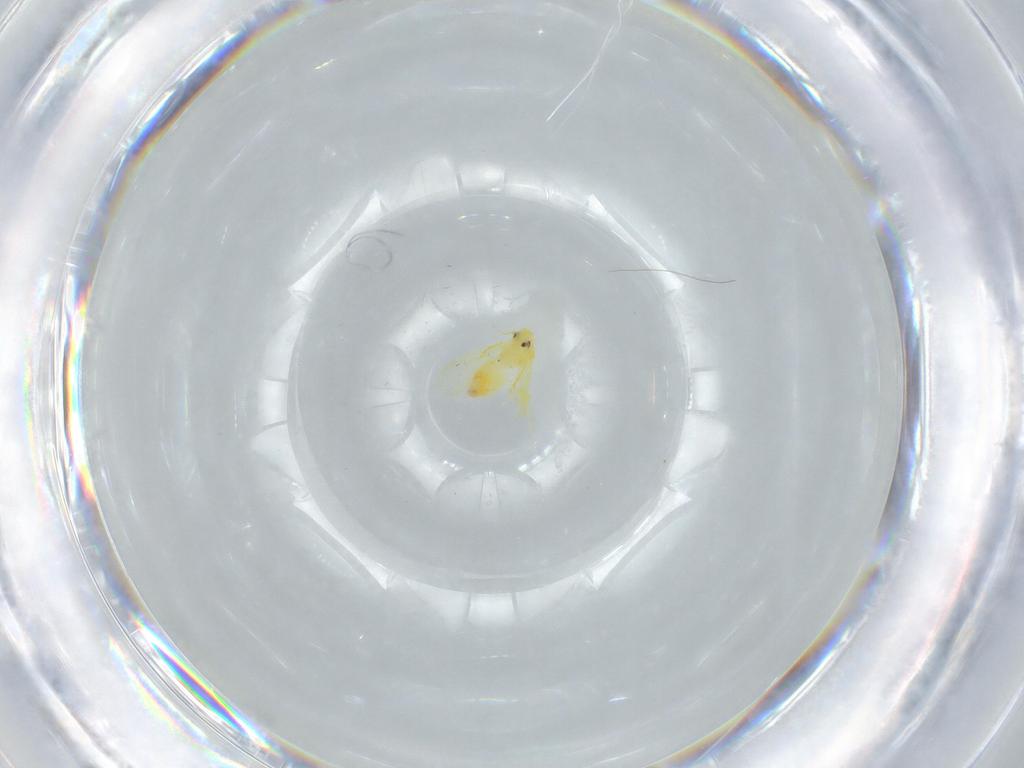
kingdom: Animalia
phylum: Arthropoda
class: Insecta
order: Hemiptera
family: Aleyrodidae
